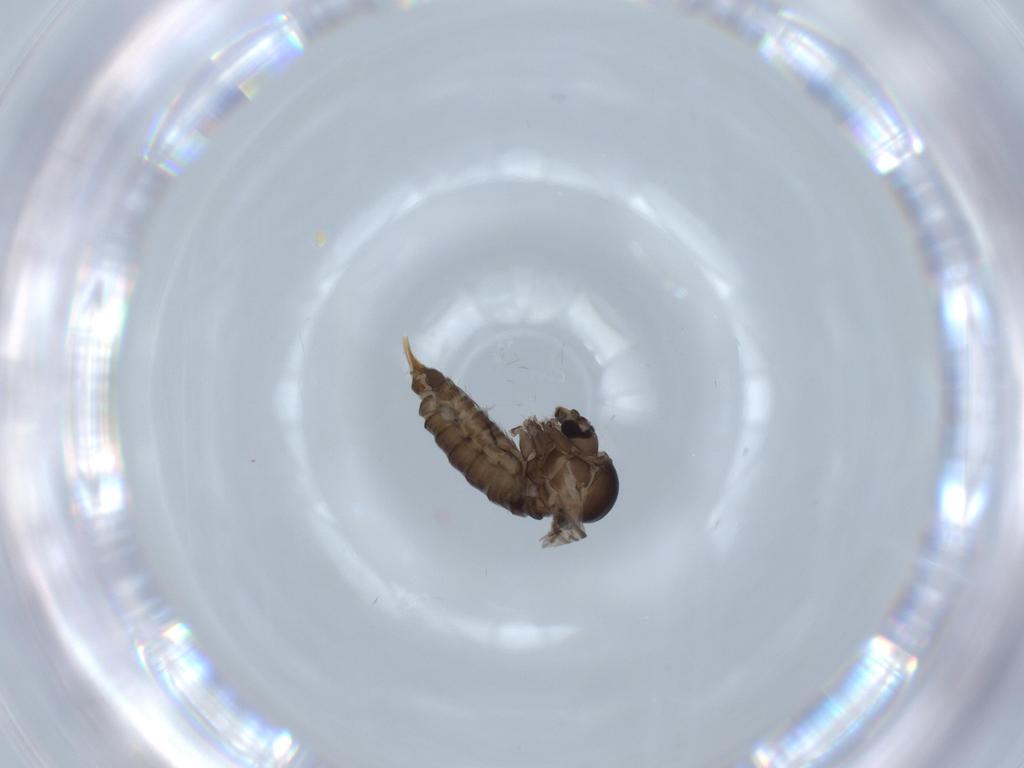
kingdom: Animalia
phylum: Arthropoda
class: Insecta
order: Diptera
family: Psychodidae
